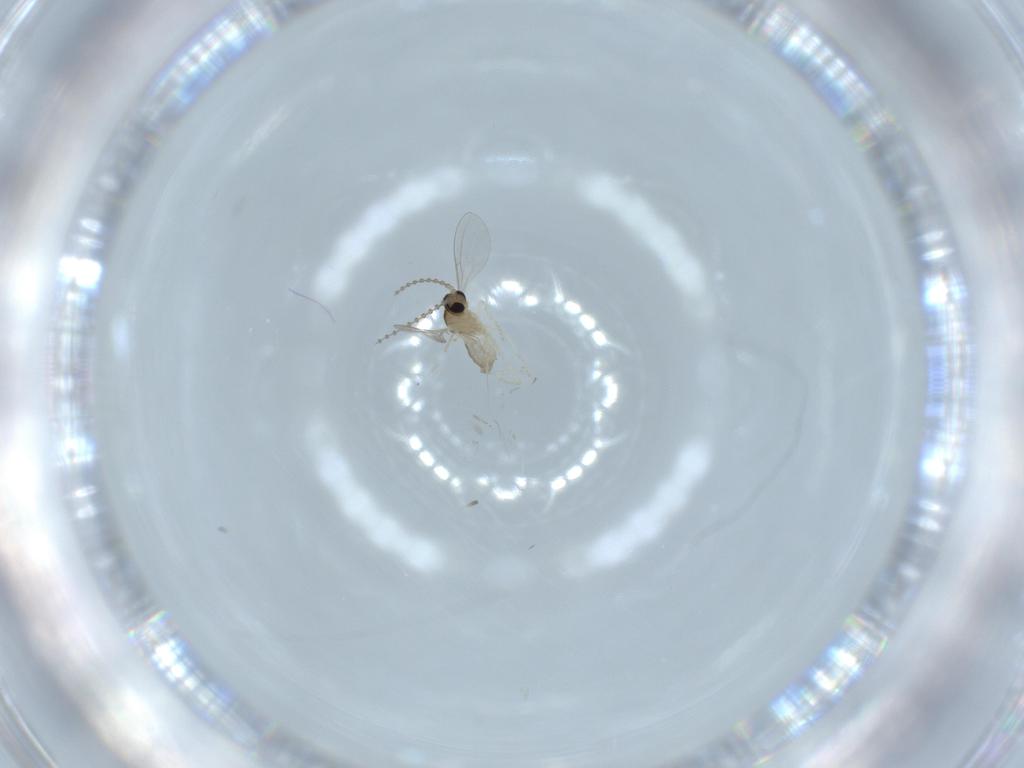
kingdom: Animalia
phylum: Arthropoda
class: Insecta
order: Diptera
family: Cecidomyiidae
